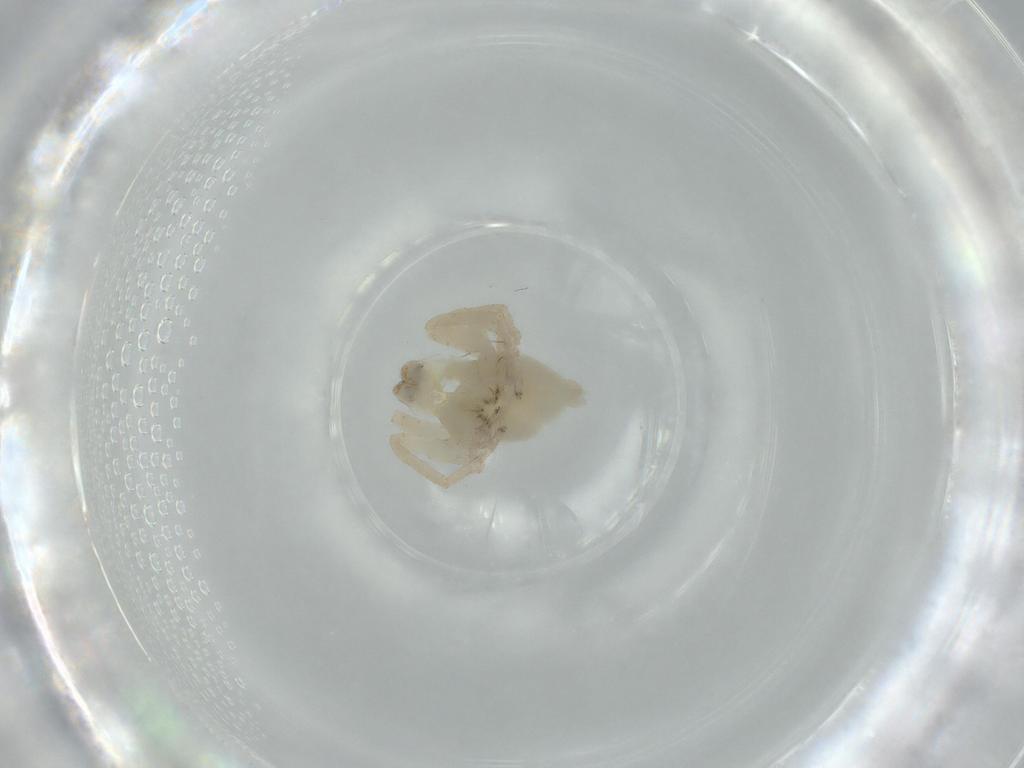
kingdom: Animalia
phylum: Arthropoda
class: Arachnida
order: Araneae
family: Anyphaenidae
